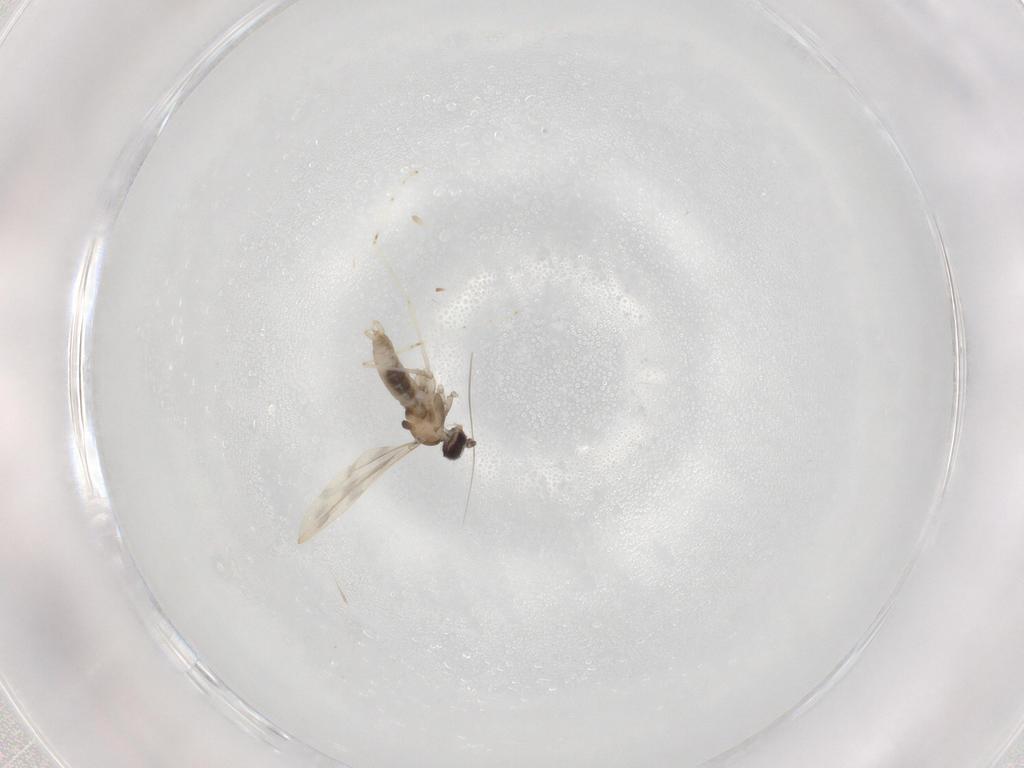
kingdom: Animalia
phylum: Arthropoda
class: Insecta
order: Diptera
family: Cecidomyiidae
